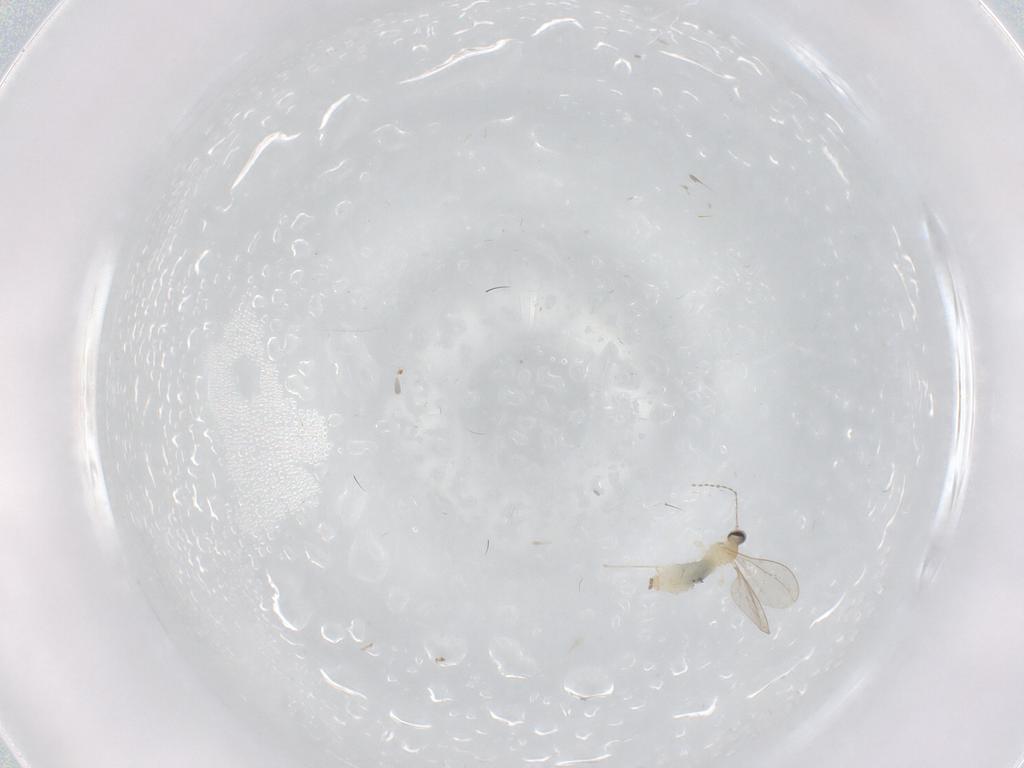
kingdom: Animalia
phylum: Arthropoda
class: Insecta
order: Diptera
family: Cecidomyiidae
